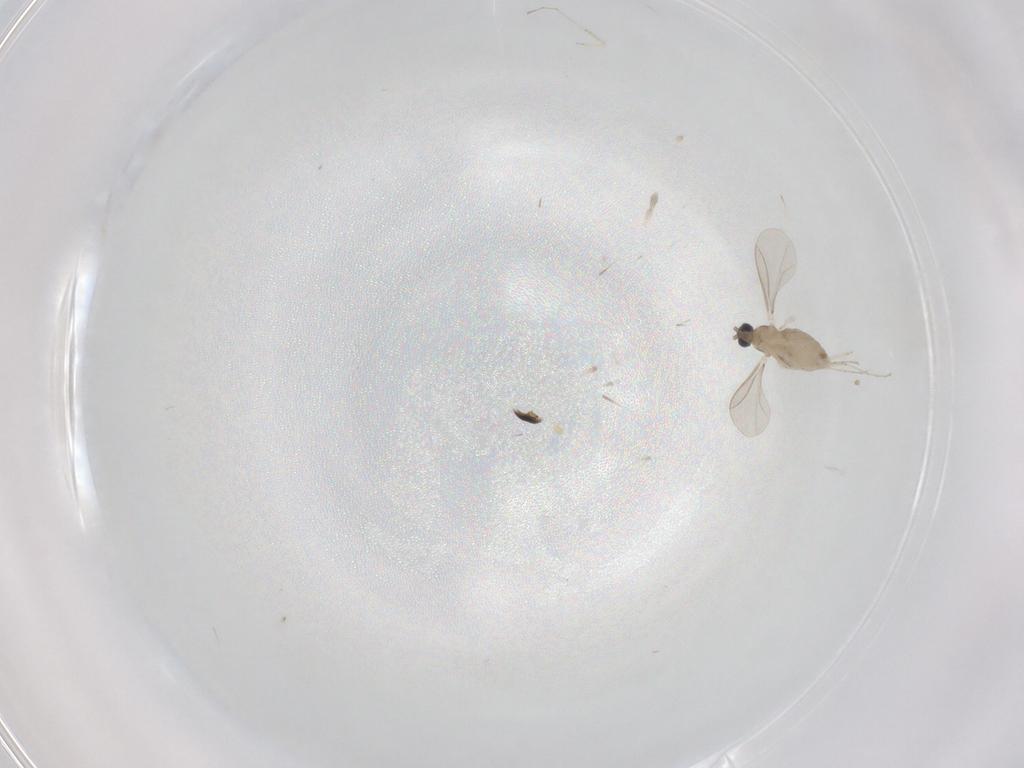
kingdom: Animalia
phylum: Arthropoda
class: Insecta
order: Diptera
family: Cecidomyiidae
